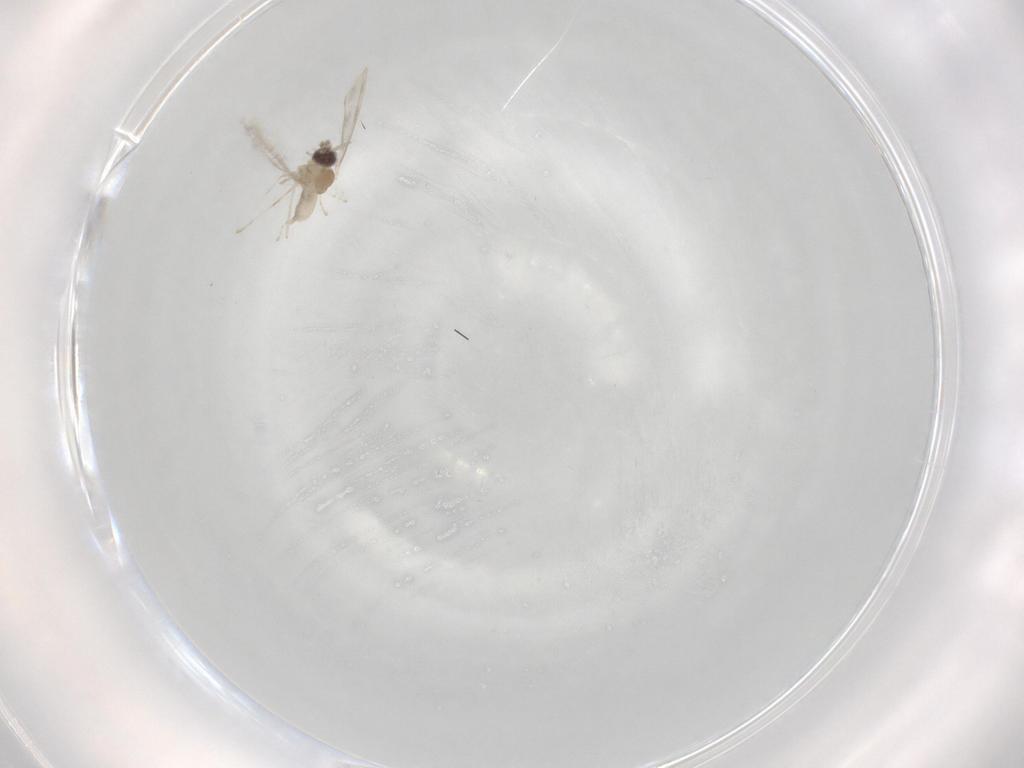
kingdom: Animalia
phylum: Arthropoda
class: Insecta
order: Diptera
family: Cecidomyiidae
